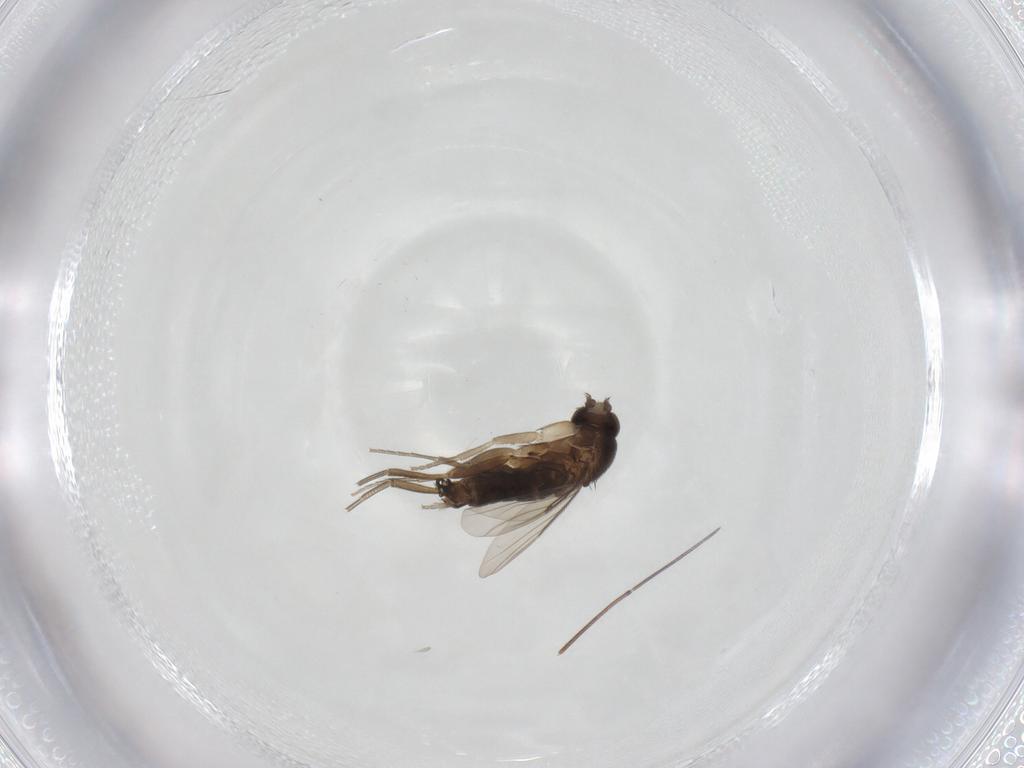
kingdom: Animalia
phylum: Arthropoda
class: Insecta
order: Diptera
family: Phoridae
